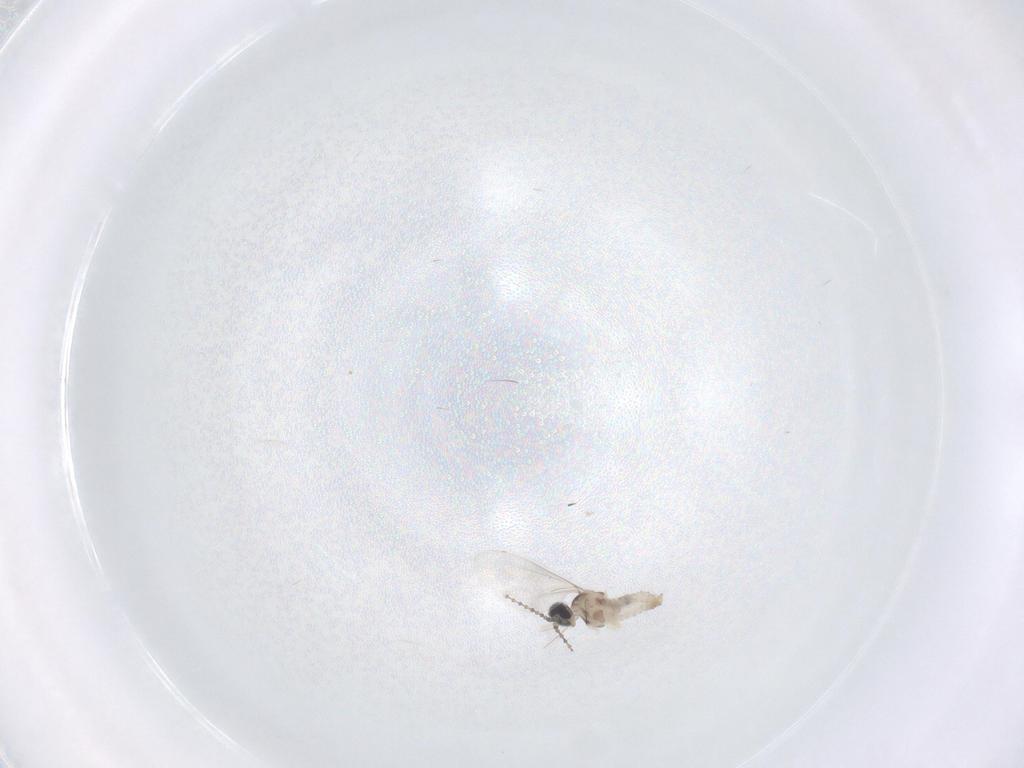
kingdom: Animalia
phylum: Arthropoda
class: Insecta
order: Diptera
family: Cecidomyiidae
